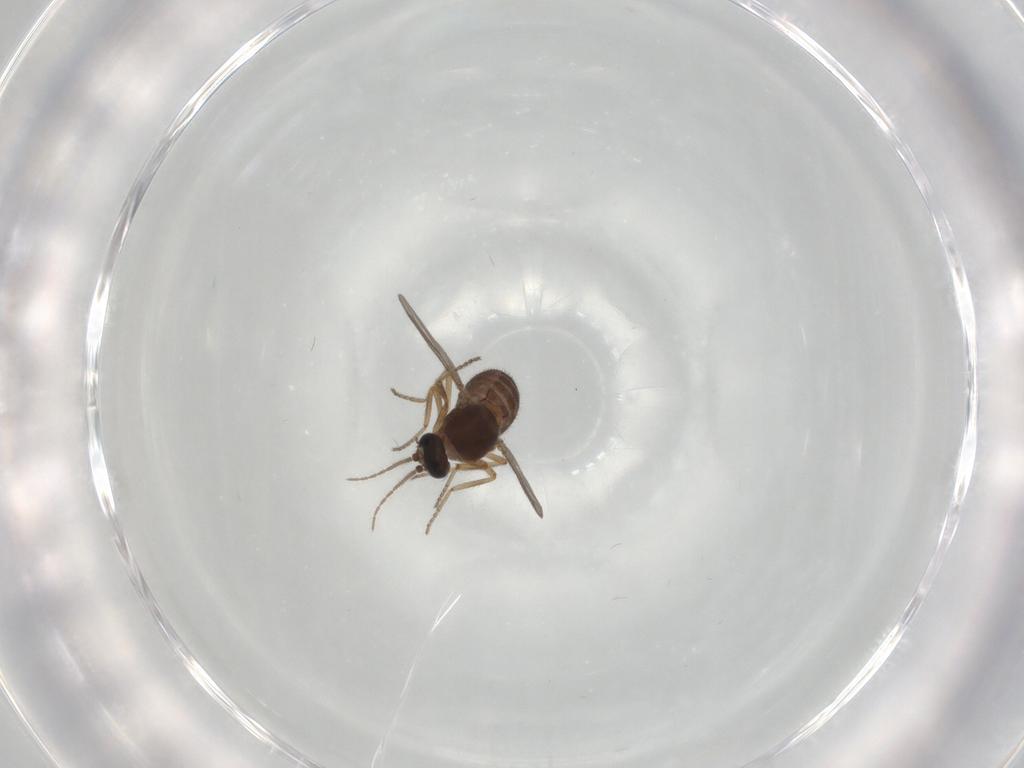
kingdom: Animalia
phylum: Arthropoda
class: Insecta
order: Diptera
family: Ceratopogonidae
